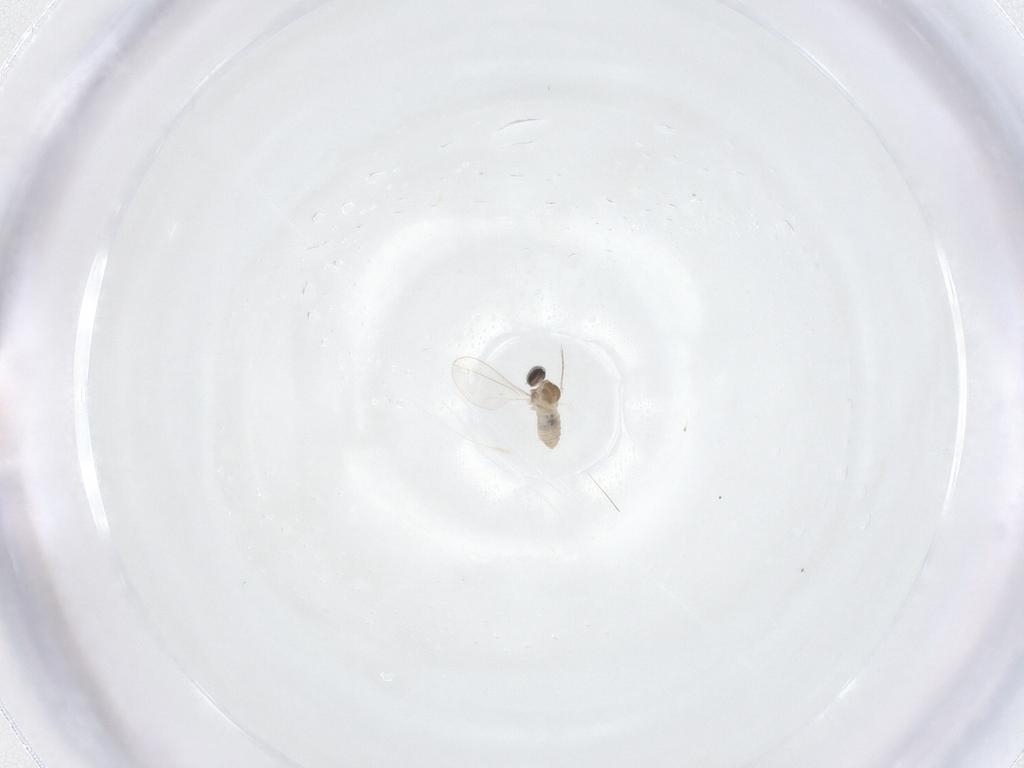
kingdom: Animalia
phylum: Arthropoda
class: Insecta
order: Diptera
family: Cecidomyiidae
